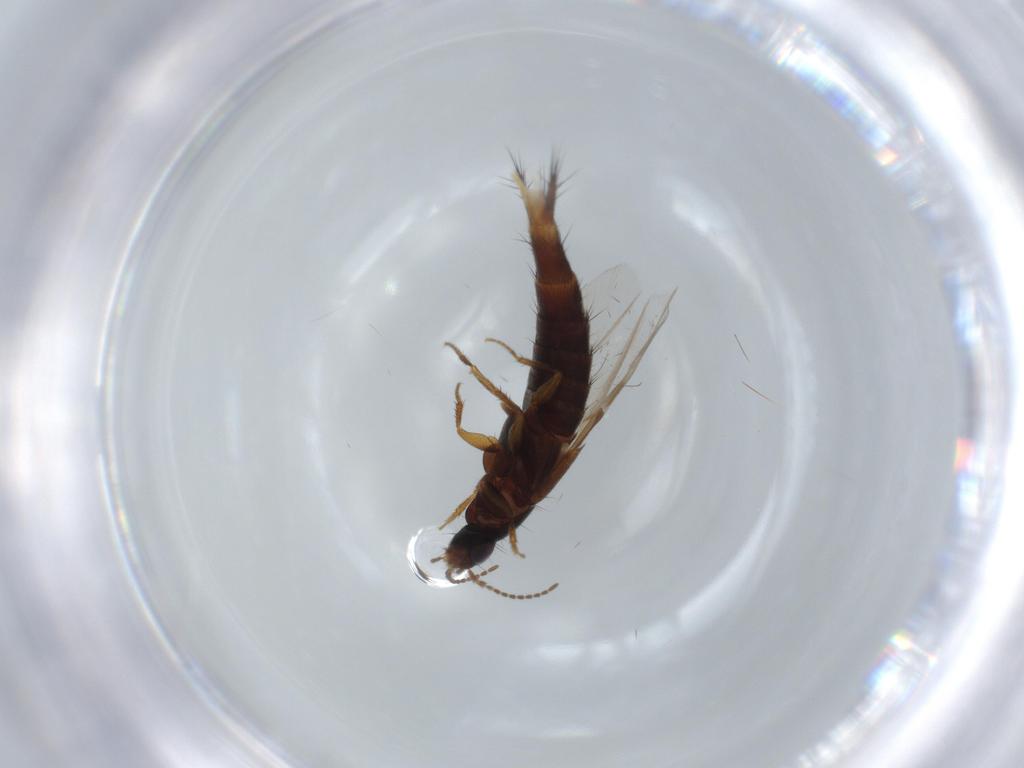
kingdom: Animalia
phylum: Arthropoda
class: Insecta
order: Coleoptera
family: Staphylinidae
